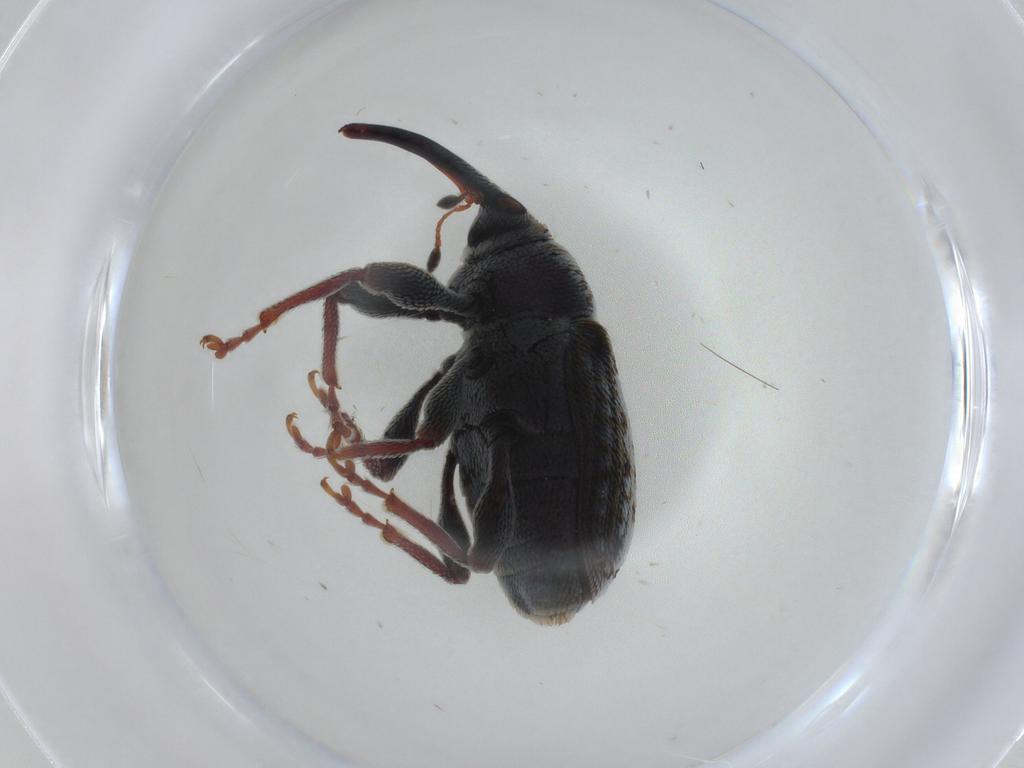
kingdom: Animalia
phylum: Arthropoda
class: Insecta
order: Coleoptera
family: Curculionidae
